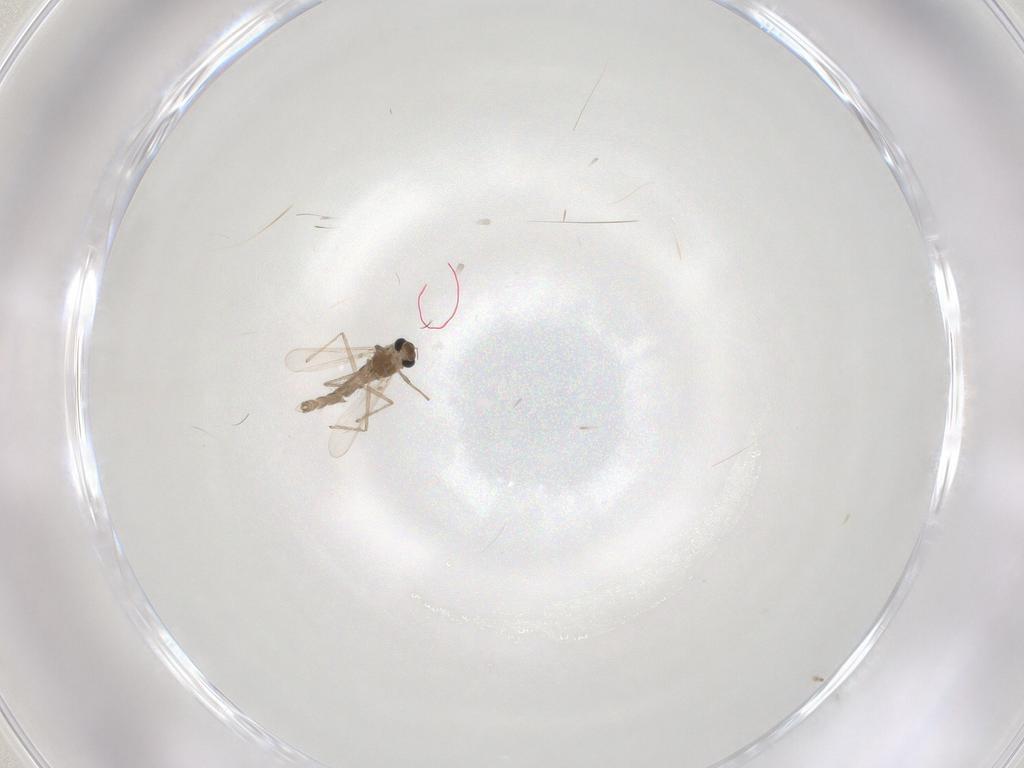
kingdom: Animalia
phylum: Arthropoda
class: Insecta
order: Diptera
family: Chironomidae
